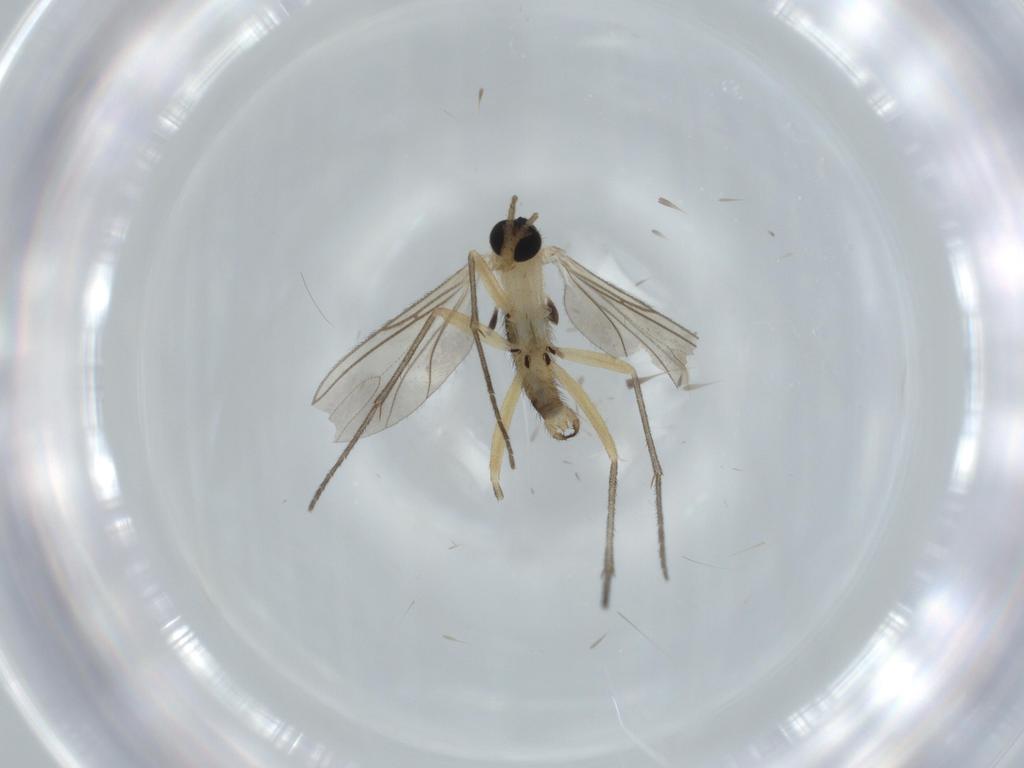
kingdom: Animalia
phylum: Arthropoda
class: Insecta
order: Diptera
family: Sciaridae
